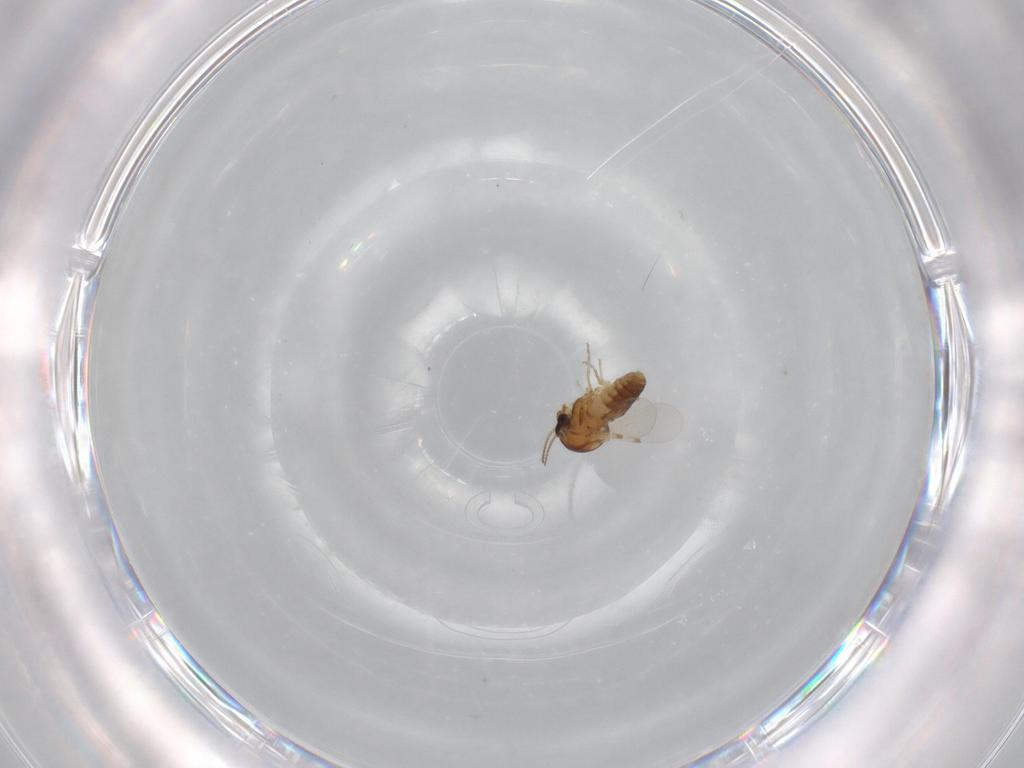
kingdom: Animalia
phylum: Arthropoda
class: Insecta
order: Diptera
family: Ceratopogonidae
